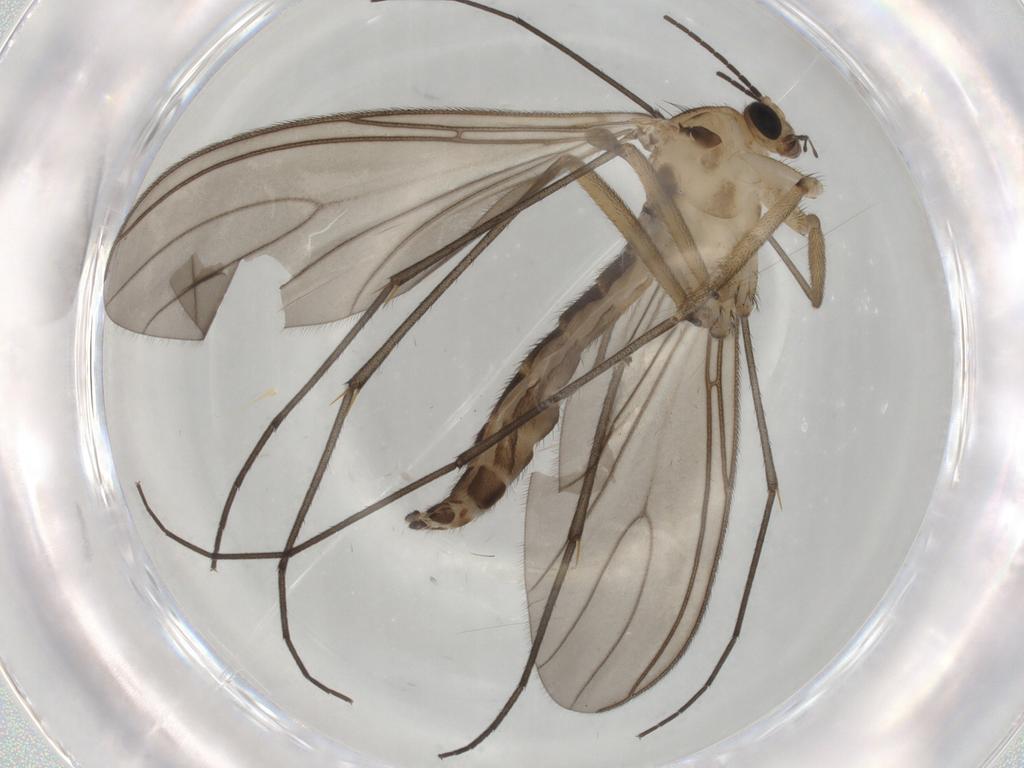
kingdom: Animalia
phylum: Arthropoda
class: Insecta
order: Diptera
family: Sciaridae
